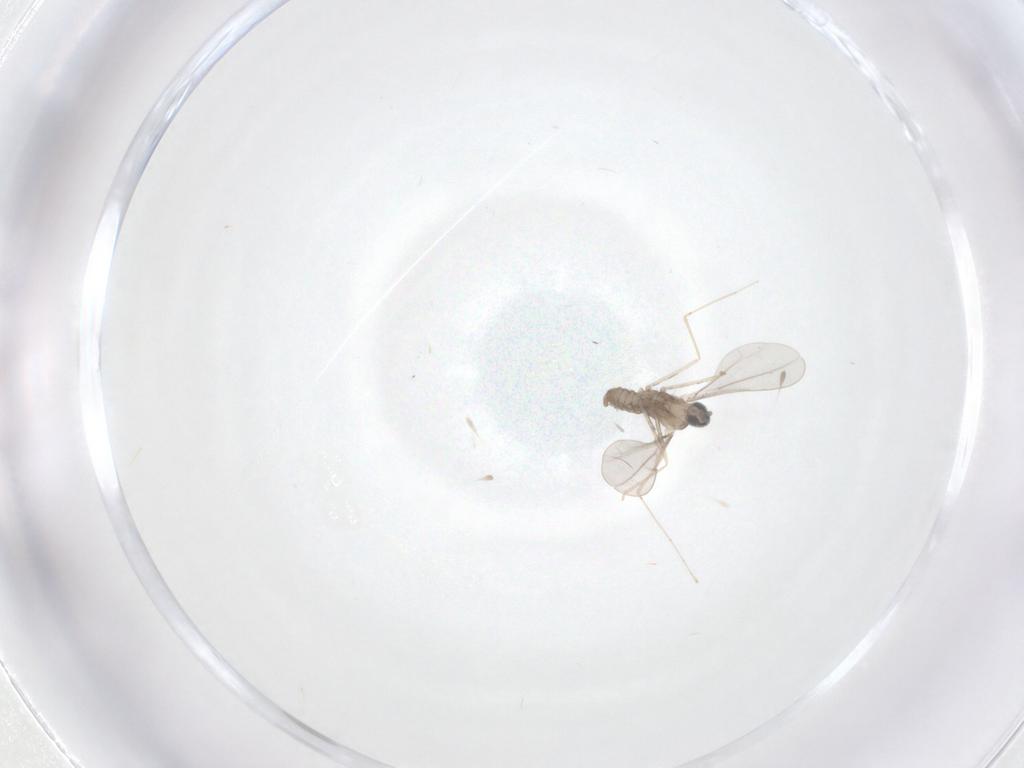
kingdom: Animalia
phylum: Arthropoda
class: Insecta
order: Diptera
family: Cecidomyiidae
